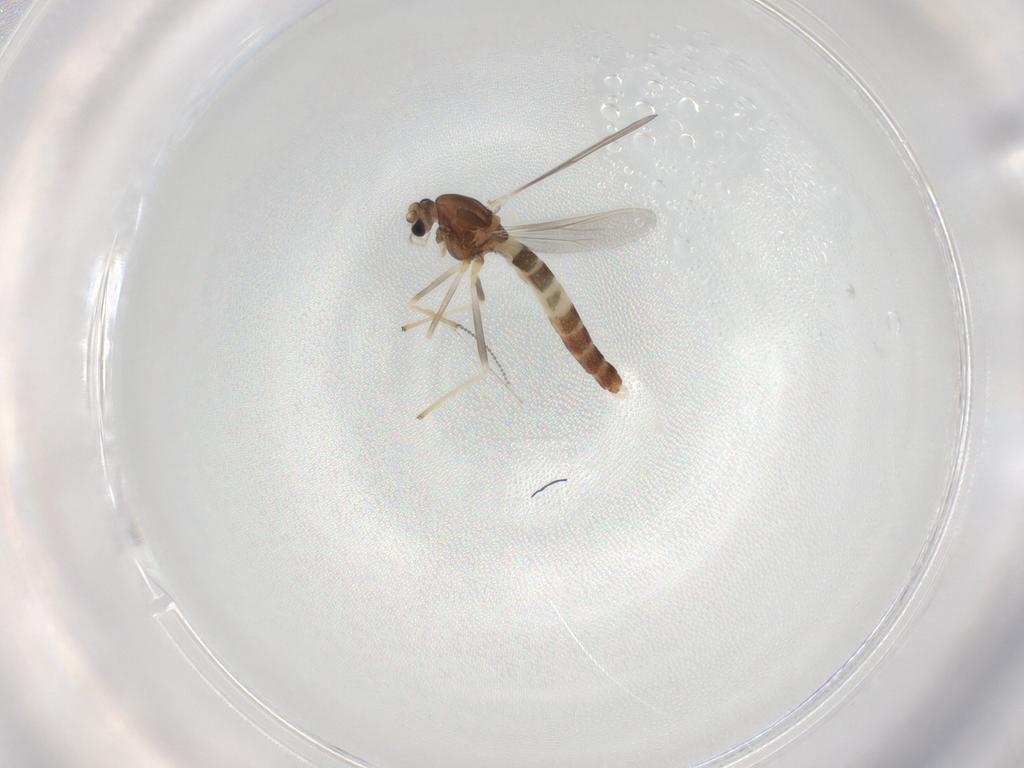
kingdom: Animalia
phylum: Arthropoda
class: Insecta
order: Diptera
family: Chironomidae
